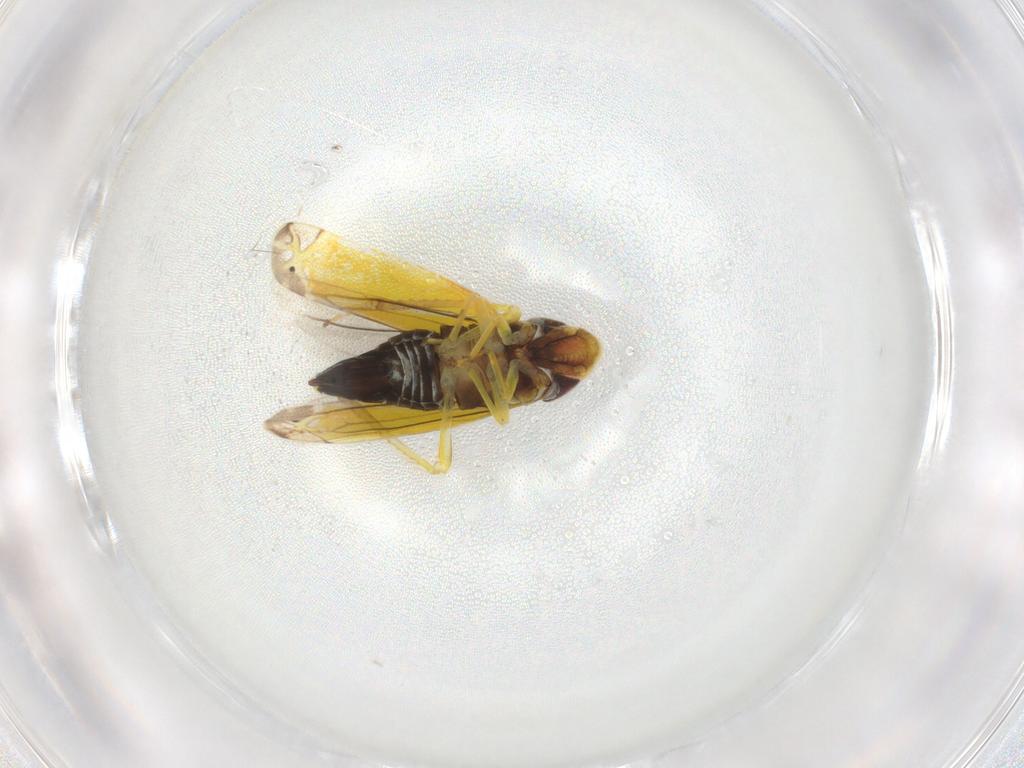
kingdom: Animalia
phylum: Arthropoda
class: Insecta
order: Hemiptera
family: Cicadellidae
